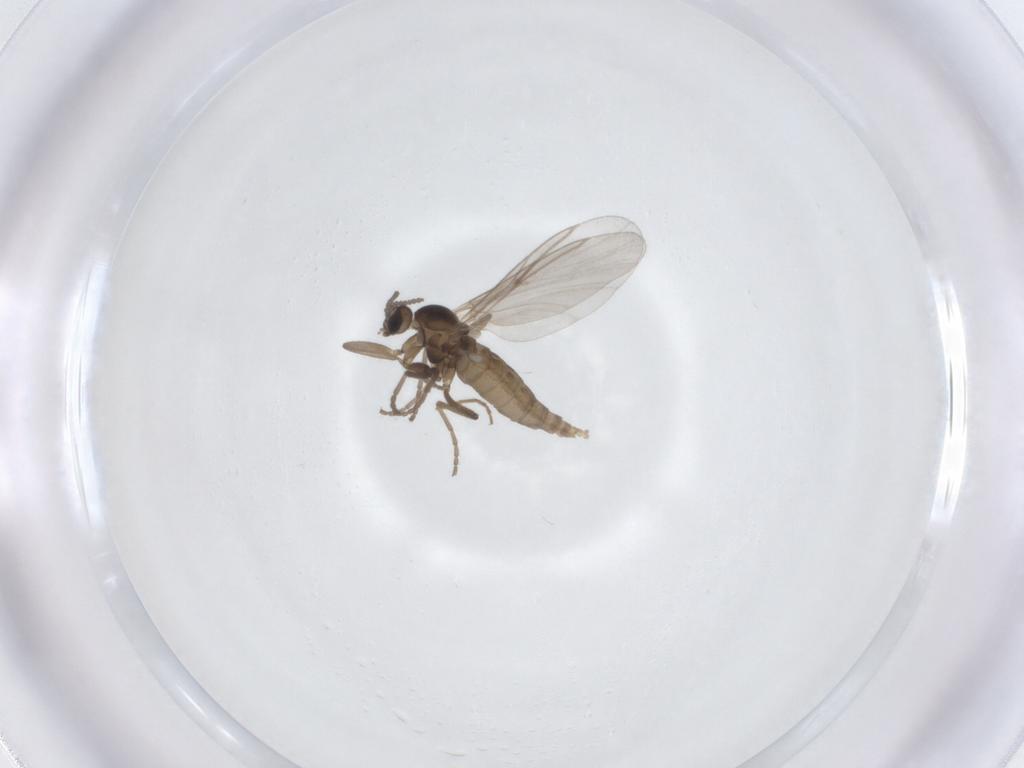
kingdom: Animalia
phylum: Arthropoda
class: Insecta
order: Diptera
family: Cecidomyiidae
